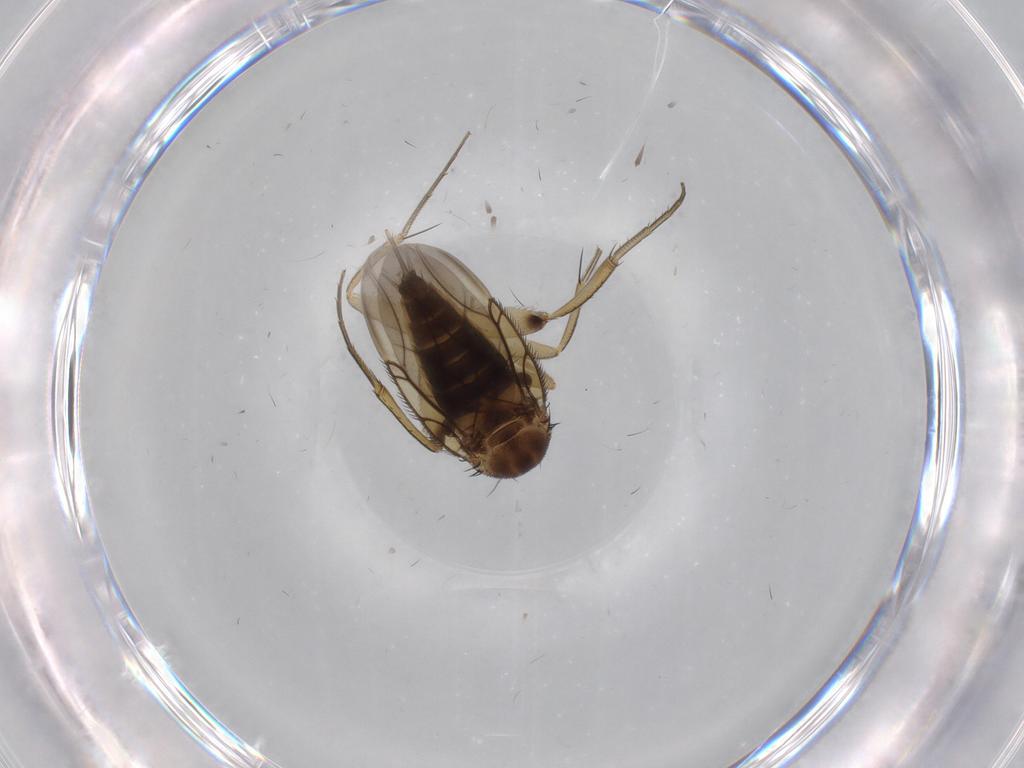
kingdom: Animalia
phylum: Arthropoda
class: Insecta
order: Diptera
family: Phoridae
